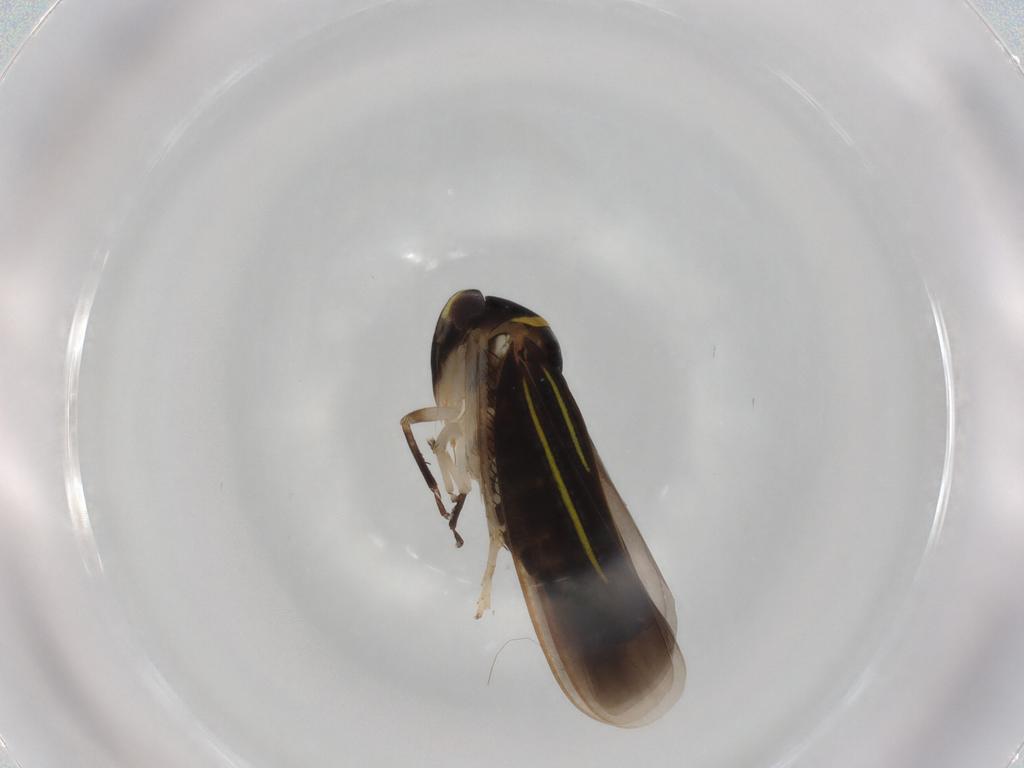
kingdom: Animalia
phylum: Arthropoda
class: Insecta
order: Hemiptera
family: Cicadellidae
